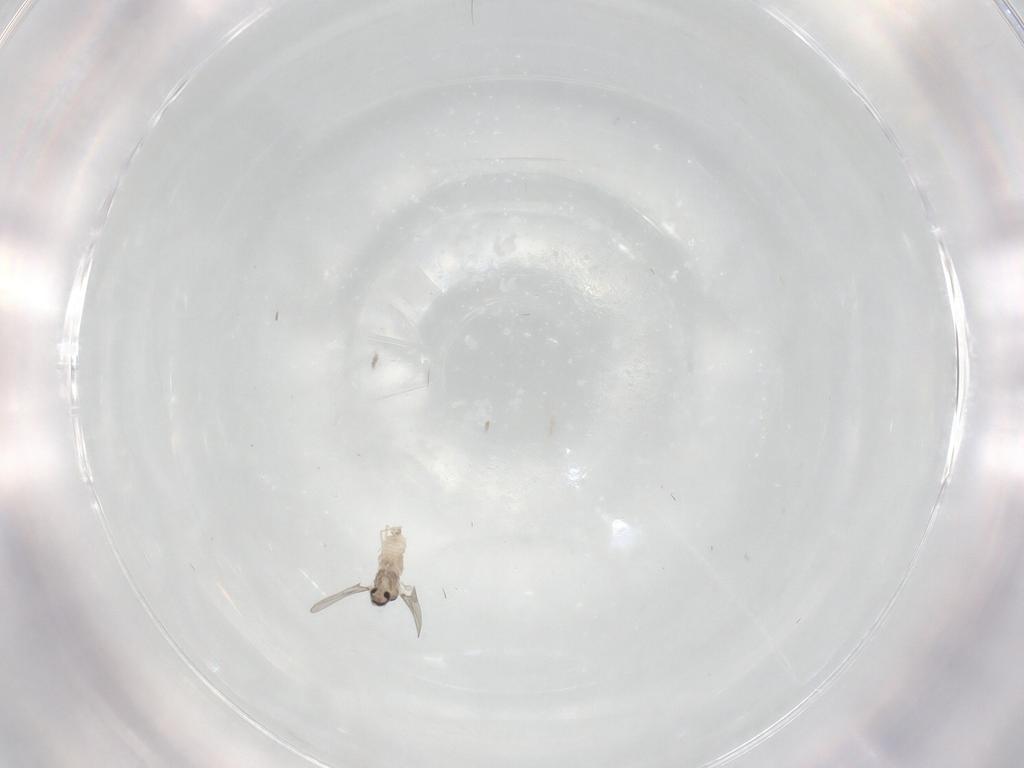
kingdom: Animalia
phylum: Arthropoda
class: Insecta
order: Diptera
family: Cecidomyiidae
